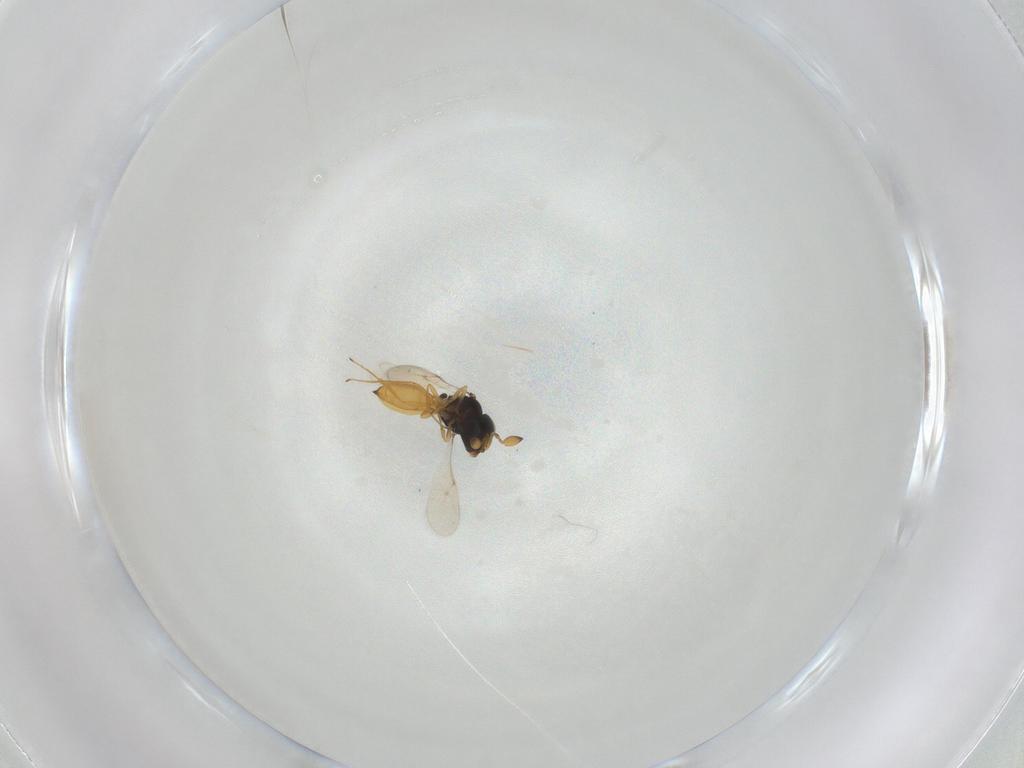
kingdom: Animalia
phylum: Arthropoda
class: Insecta
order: Hymenoptera
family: Scelionidae
